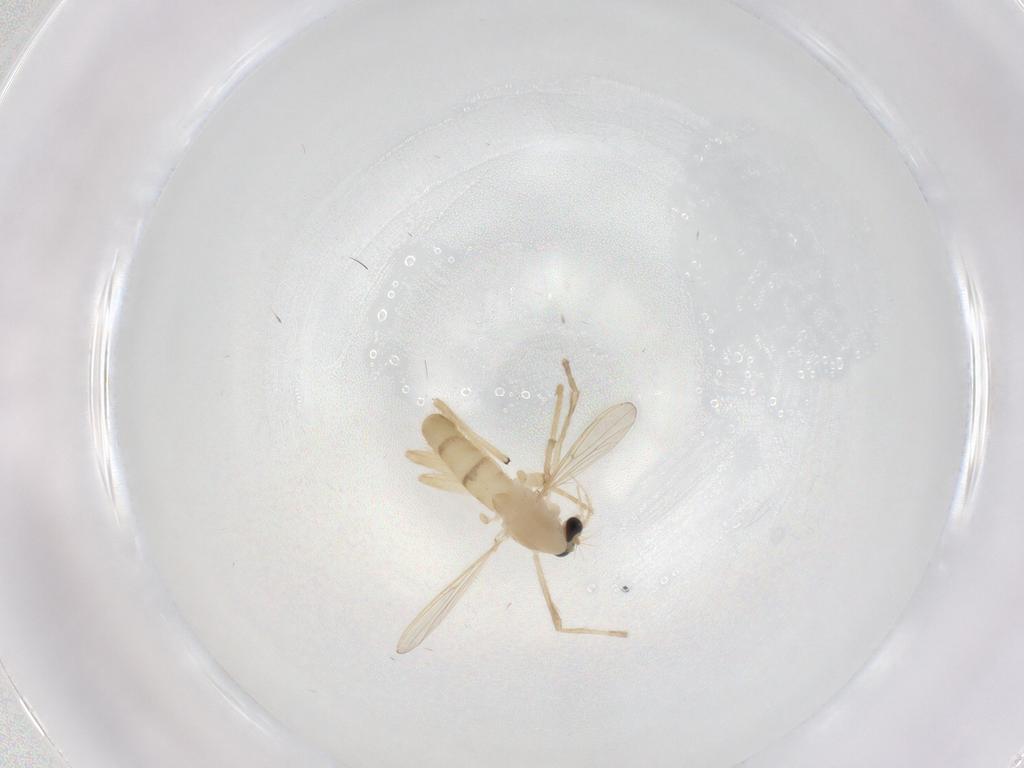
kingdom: Animalia
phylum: Arthropoda
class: Insecta
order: Diptera
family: Chironomidae
